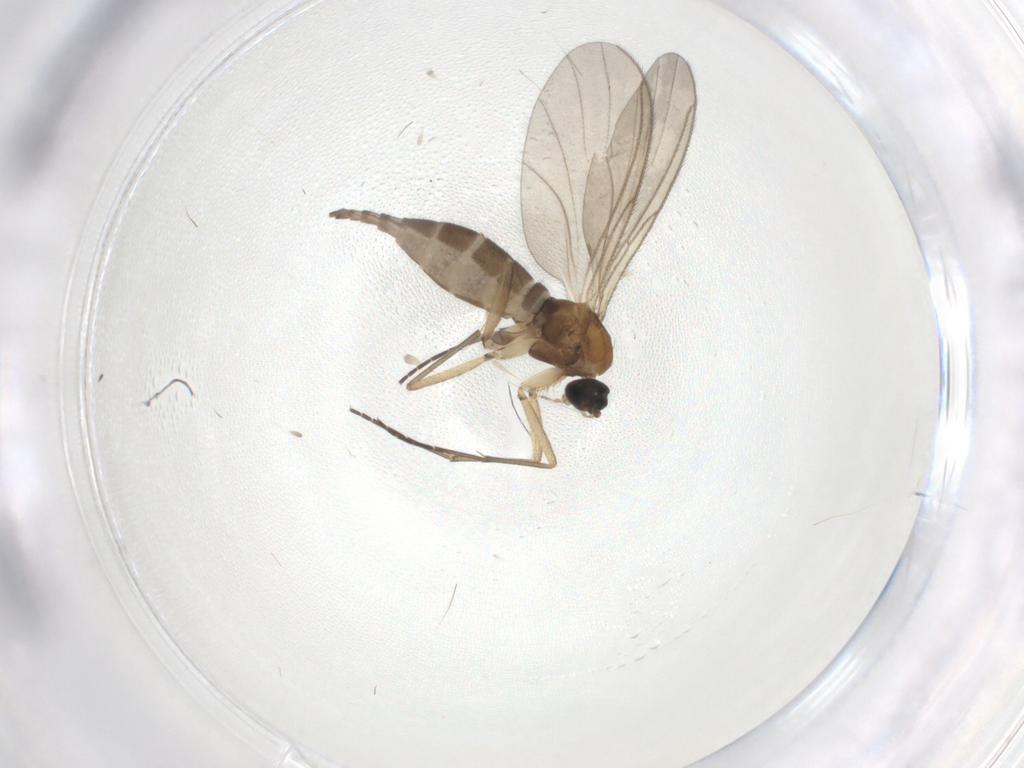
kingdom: Animalia
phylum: Arthropoda
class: Insecta
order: Diptera
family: Sciaridae
